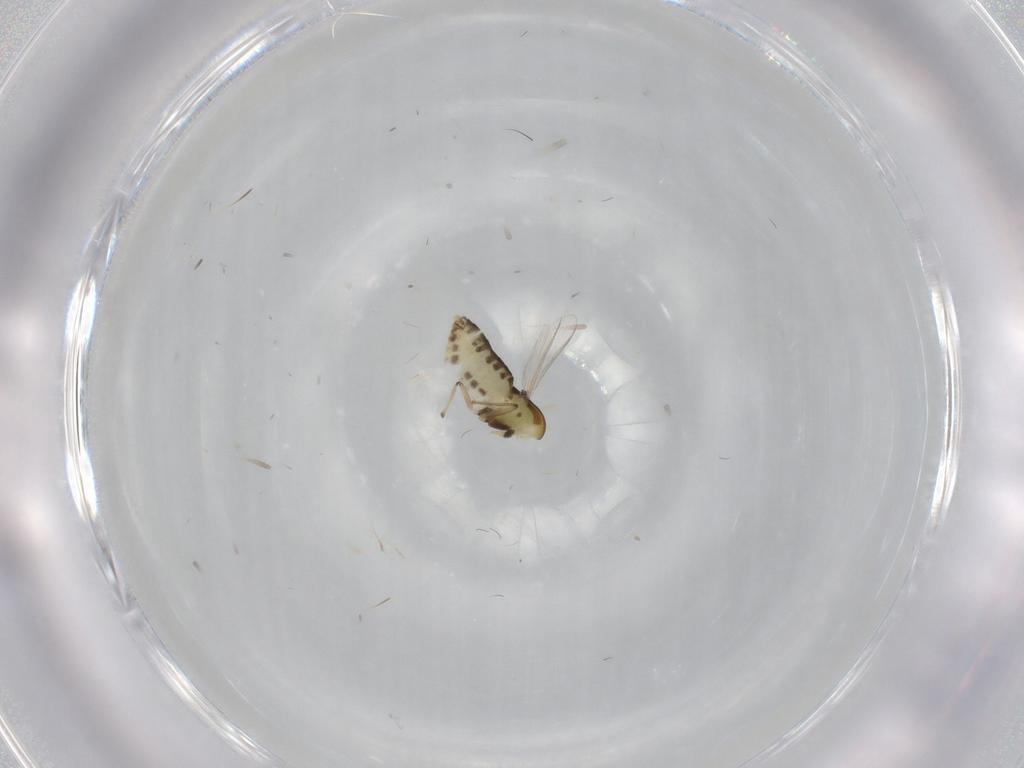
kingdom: Animalia
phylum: Arthropoda
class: Insecta
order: Diptera
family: Chironomidae
